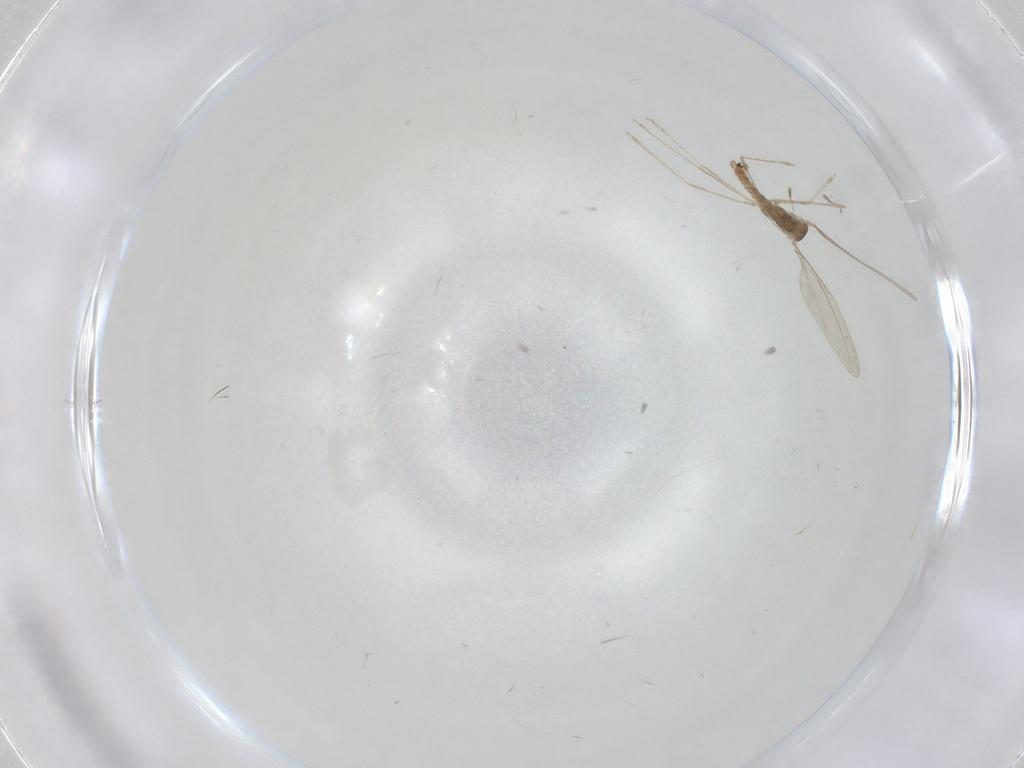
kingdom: Animalia
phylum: Arthropoda
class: Insecta
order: Diptera
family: Cecidomyiidae
